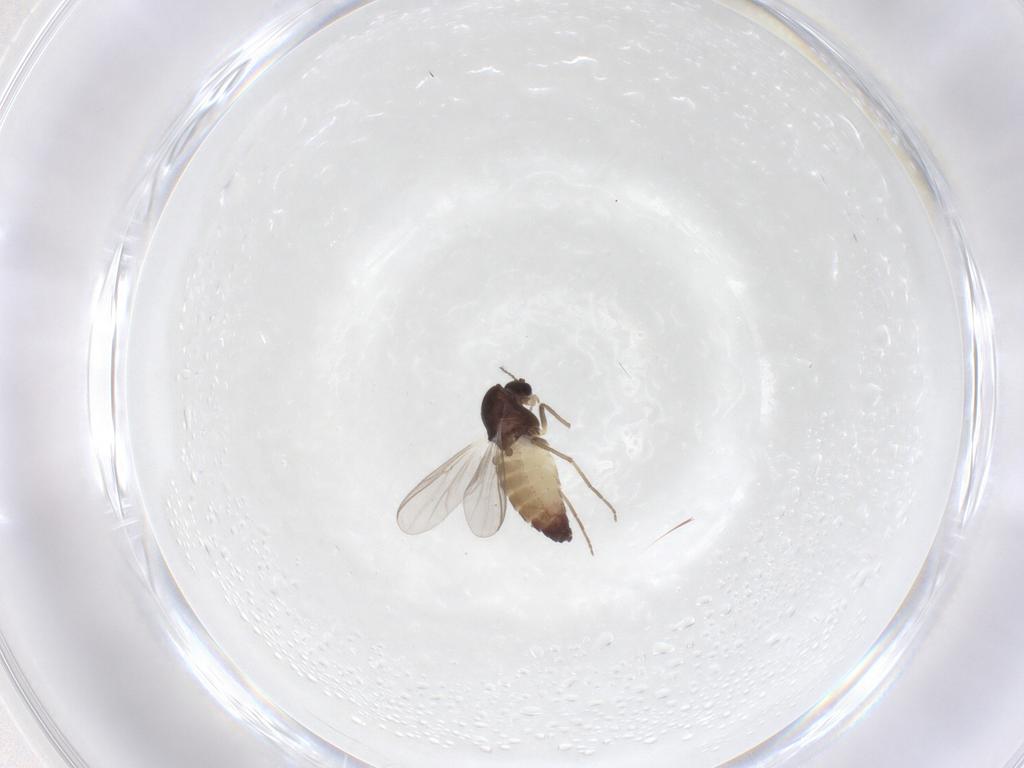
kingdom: Animalia
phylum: Arthropoda
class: Insecta
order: Diptera
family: Chironomidae
